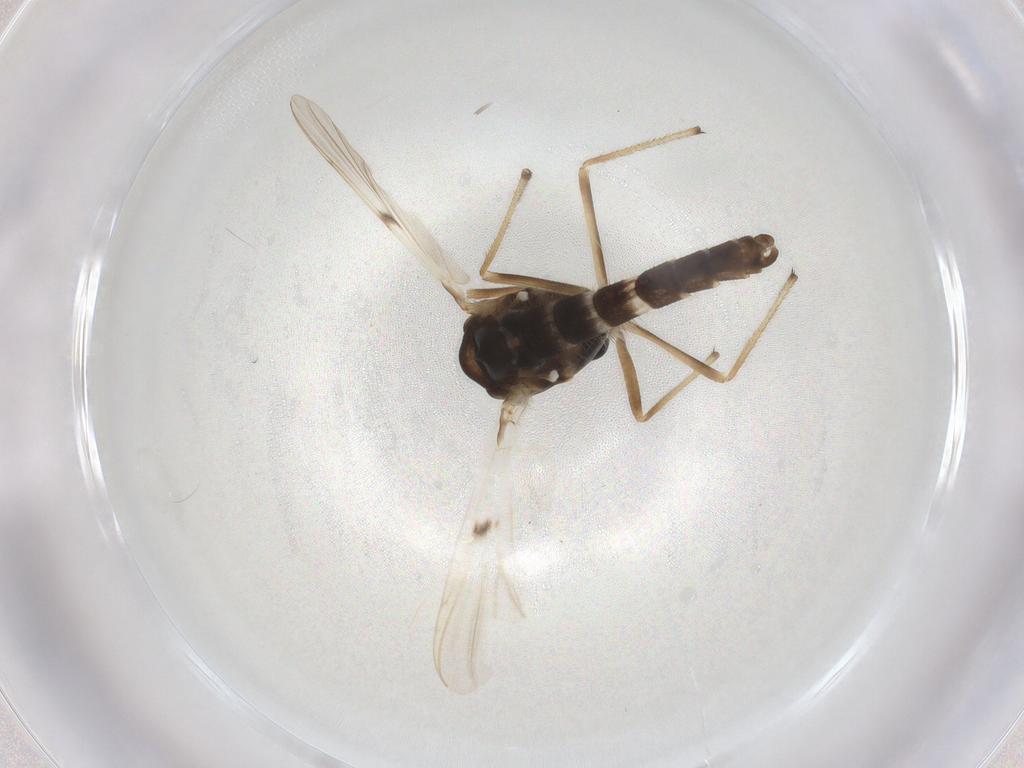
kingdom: Animalia
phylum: Arthropoda
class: Insecta
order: Diptera
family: Chironomidae
